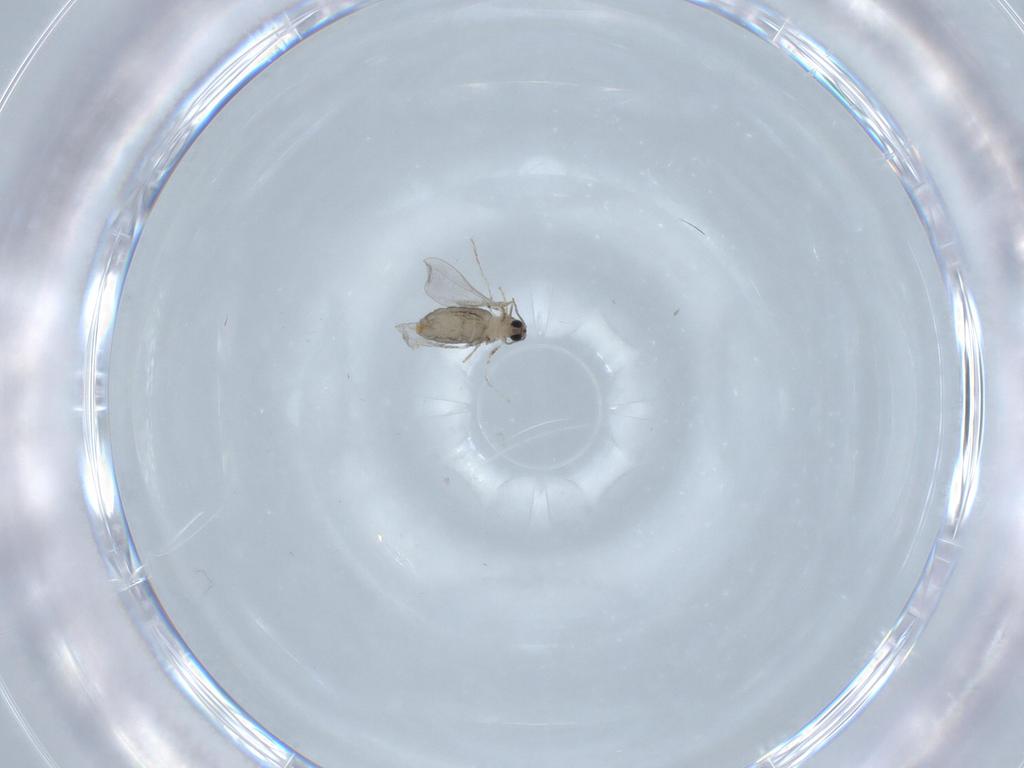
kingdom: Animalia
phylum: Arthropoda
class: Insecta
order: Diptera
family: Cecidomyiidae
